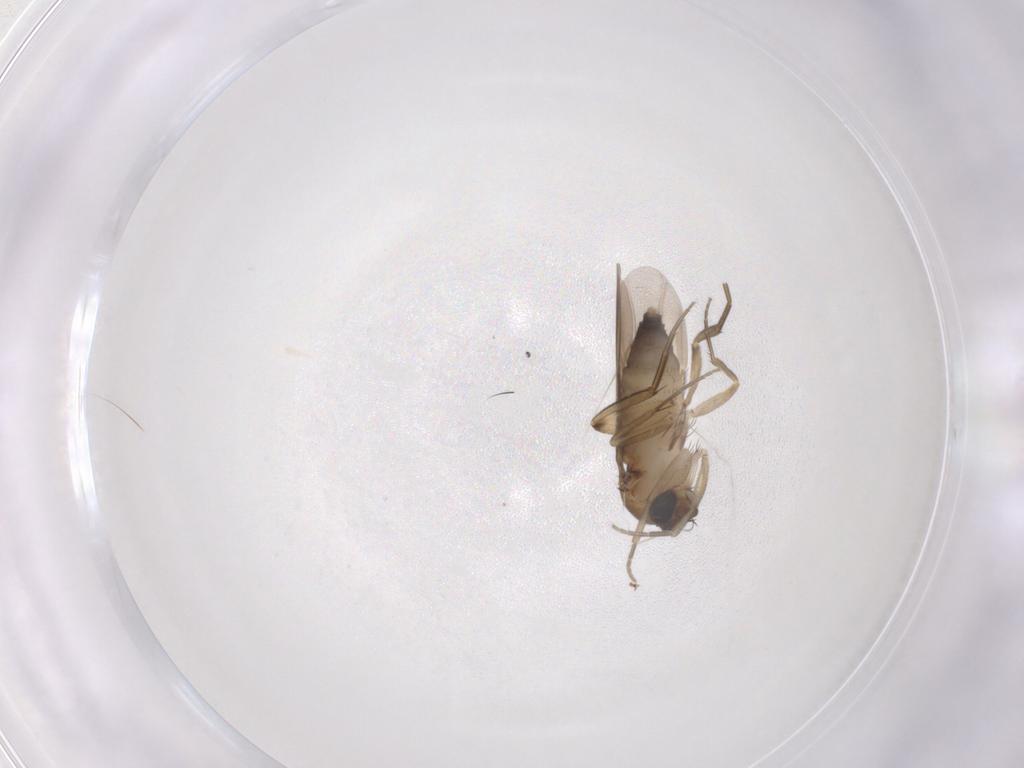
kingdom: Animalia
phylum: Arthropoda
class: Insecta
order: Diptera
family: Phoridae
